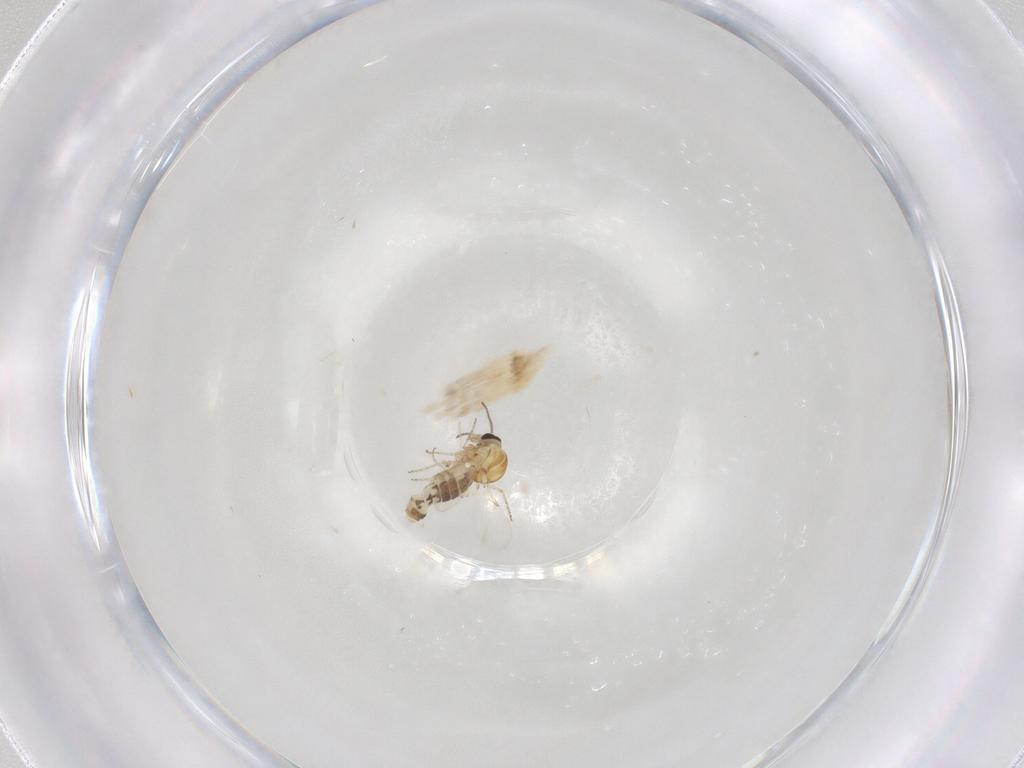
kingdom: Animalia
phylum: Arthropoda
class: Insecta
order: Diptera
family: Ceratopogonidae
